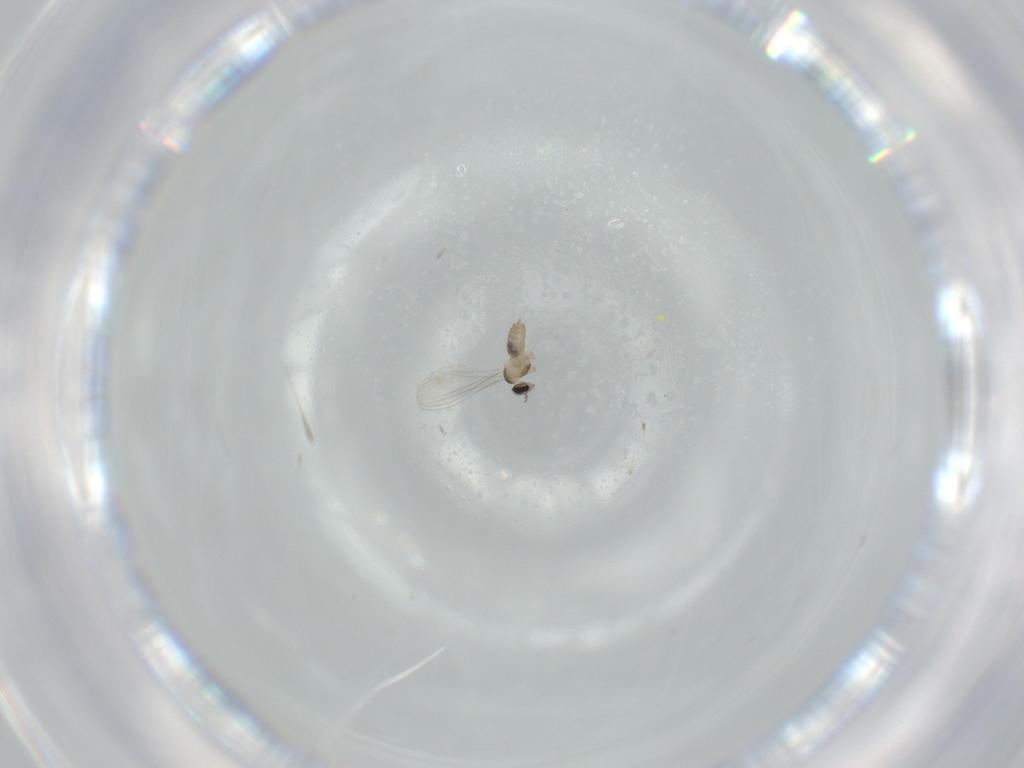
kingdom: Animalia
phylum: Arthropoda
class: Insecta
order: Diptera
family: Cecidomyiidae
